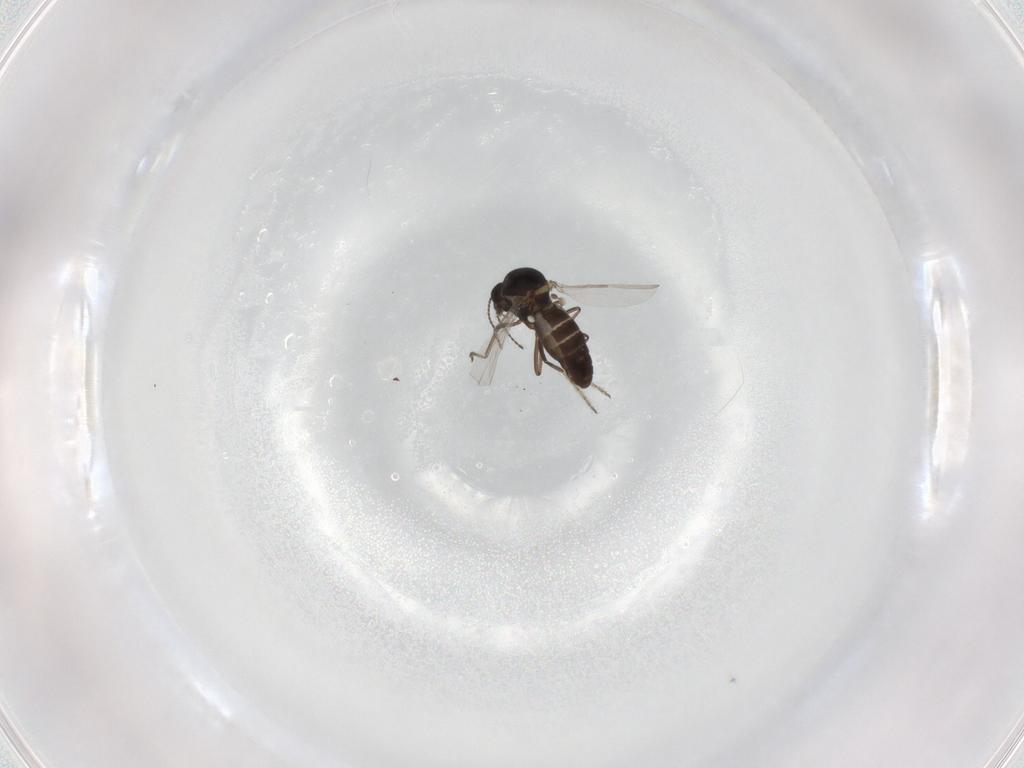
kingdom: Animalia
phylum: Arthropoda
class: Insecta
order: Diptera
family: Ceratopogonidae
